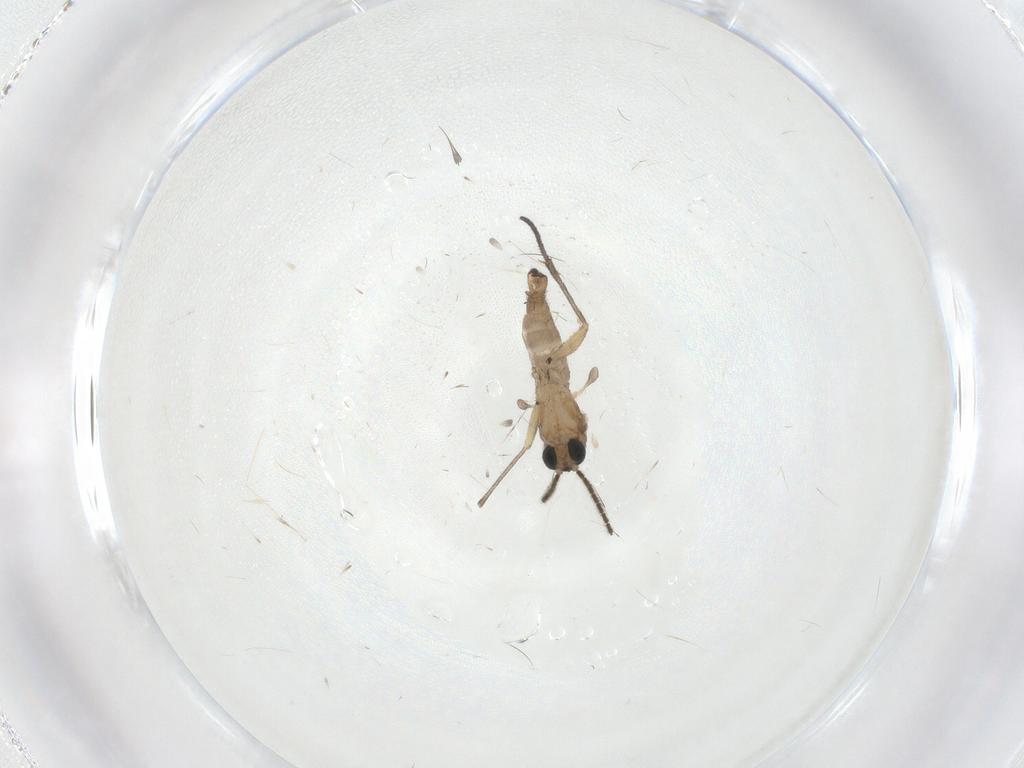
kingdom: Animalia
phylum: Arthropoda
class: Insecta
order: Diptera
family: Sciaridae
